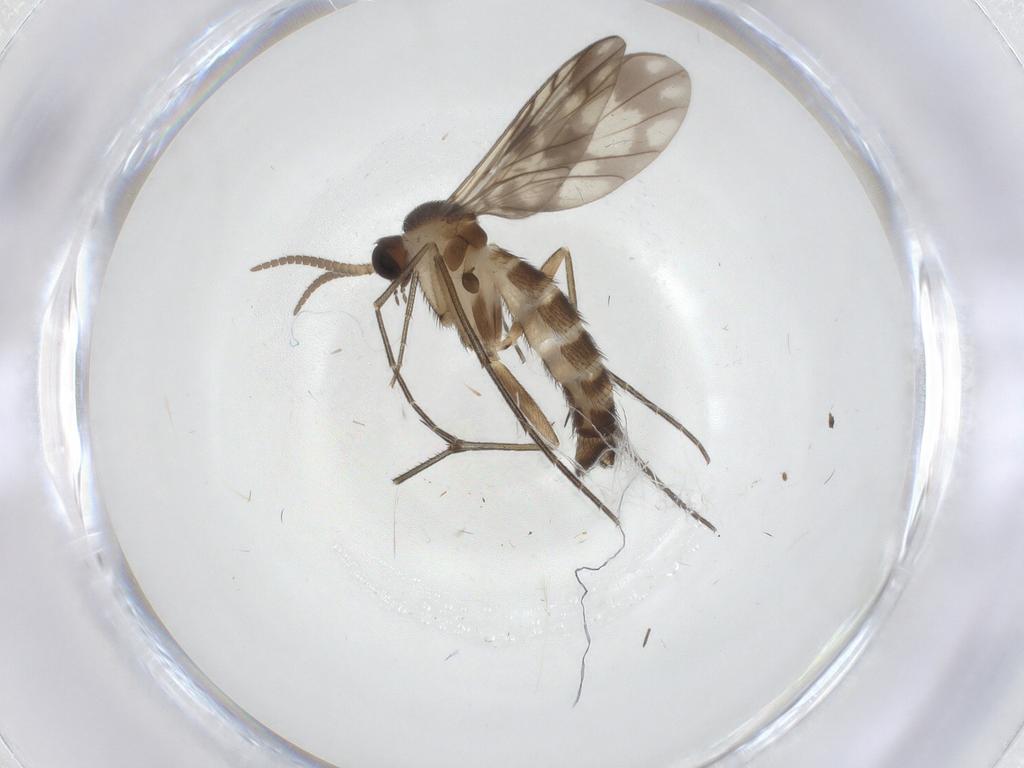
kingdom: Animalia
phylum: Arthropoda
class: Insecta
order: Diptera
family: Keroplatidae
